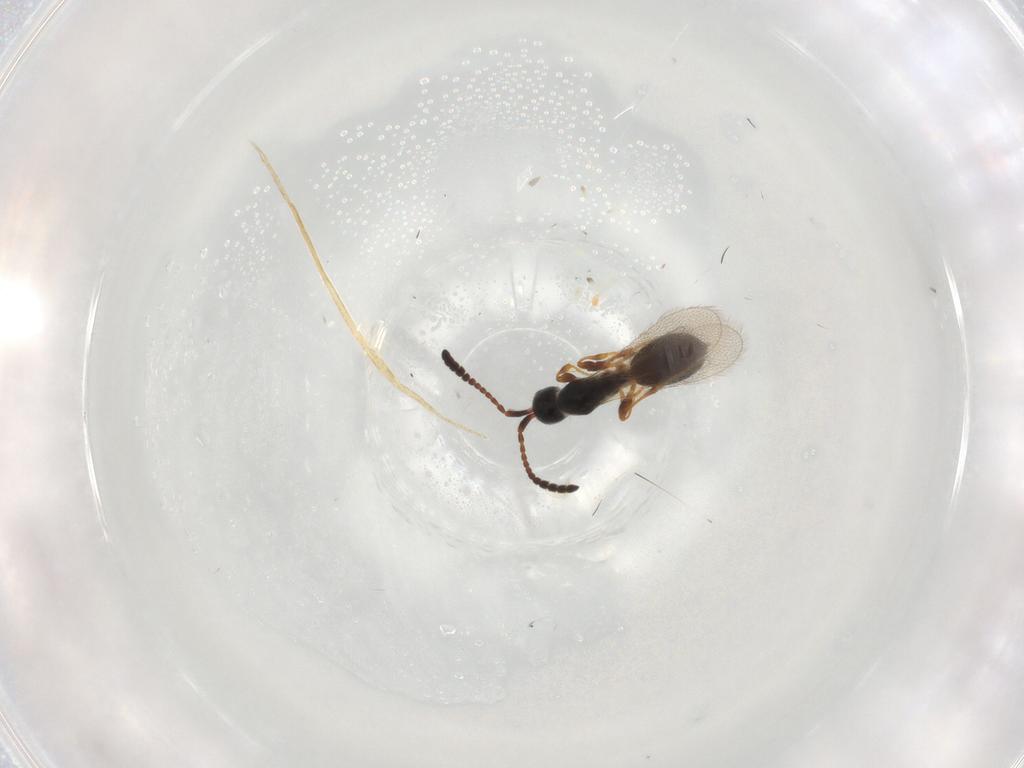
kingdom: Animalia
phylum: Arthropoda
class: Insecta
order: Hymenoptera
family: Diapriidae
